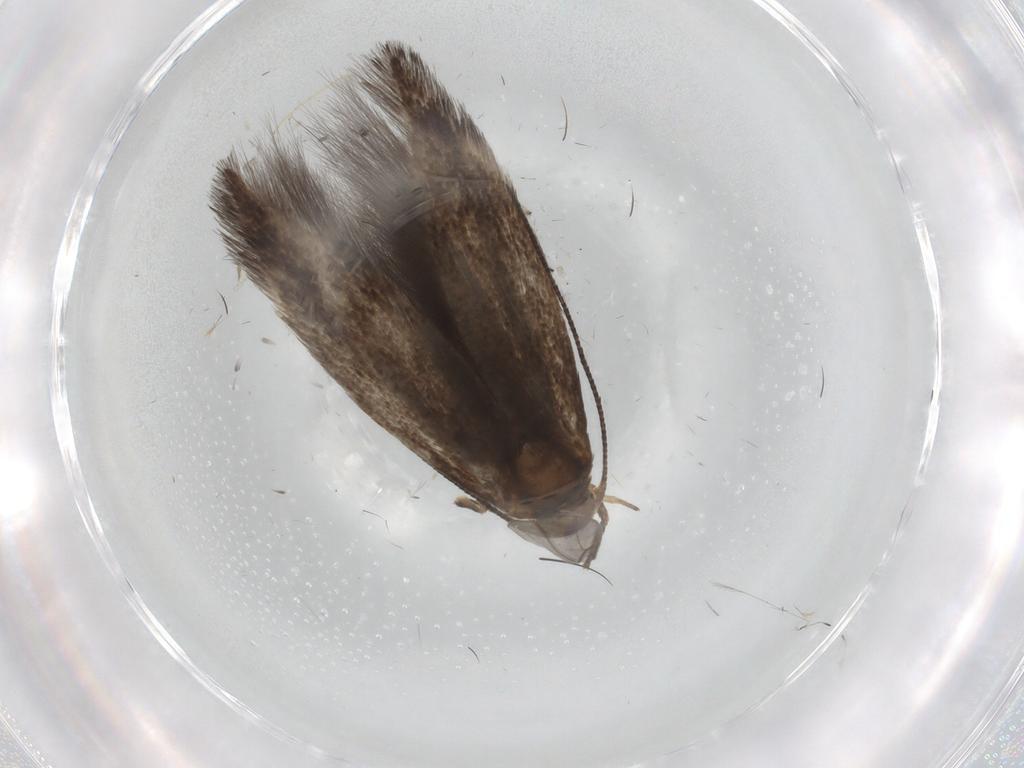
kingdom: Animalia
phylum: Arthropoda
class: Insecta
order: Lepidoptera
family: Elachistidae
